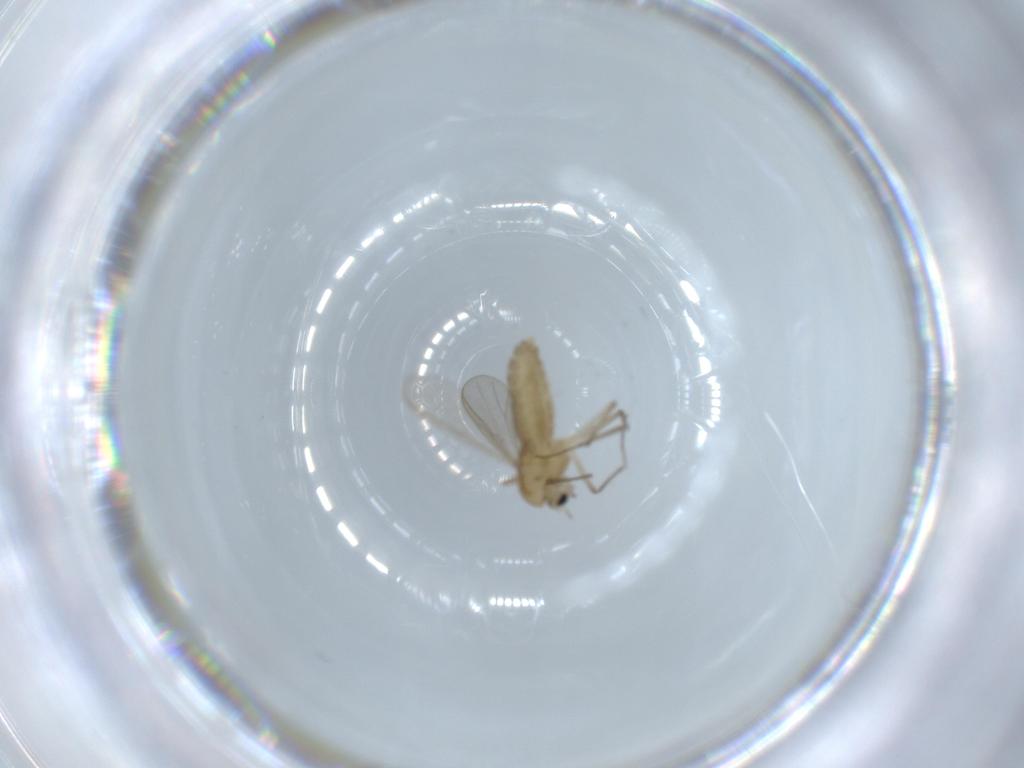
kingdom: Animalia
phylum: Arthropoda
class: Insecta
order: Diptera
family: Chironomidae
